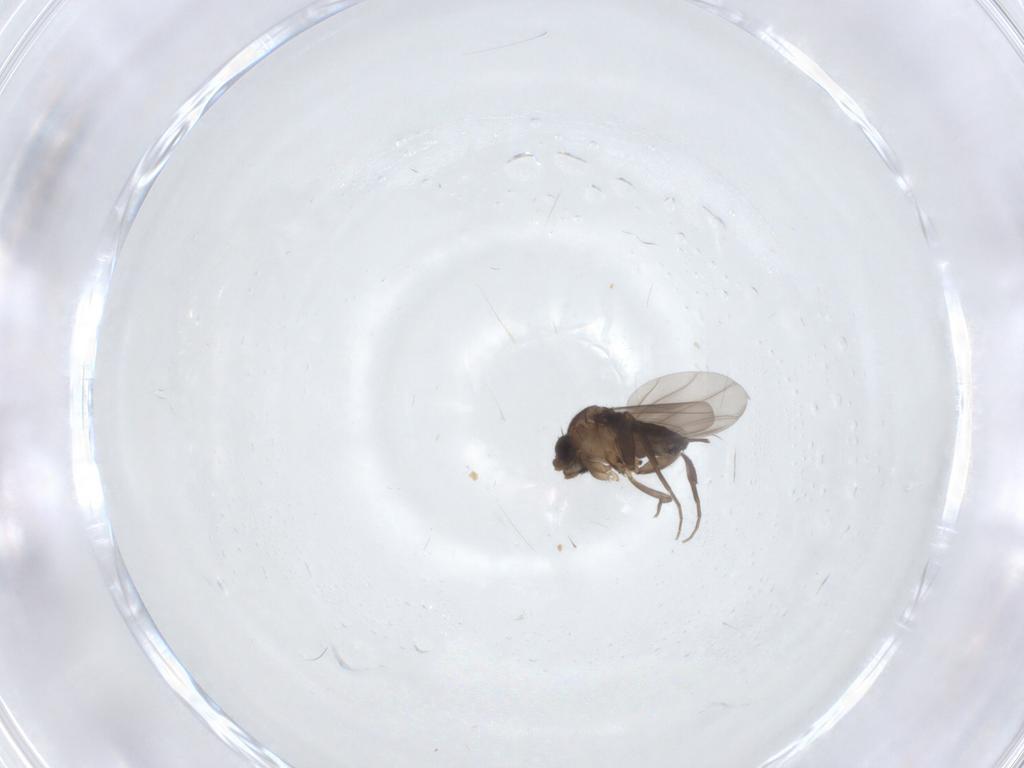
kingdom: Animalia
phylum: Arthropoda
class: Insecta
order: Diptera
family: Phoridae
